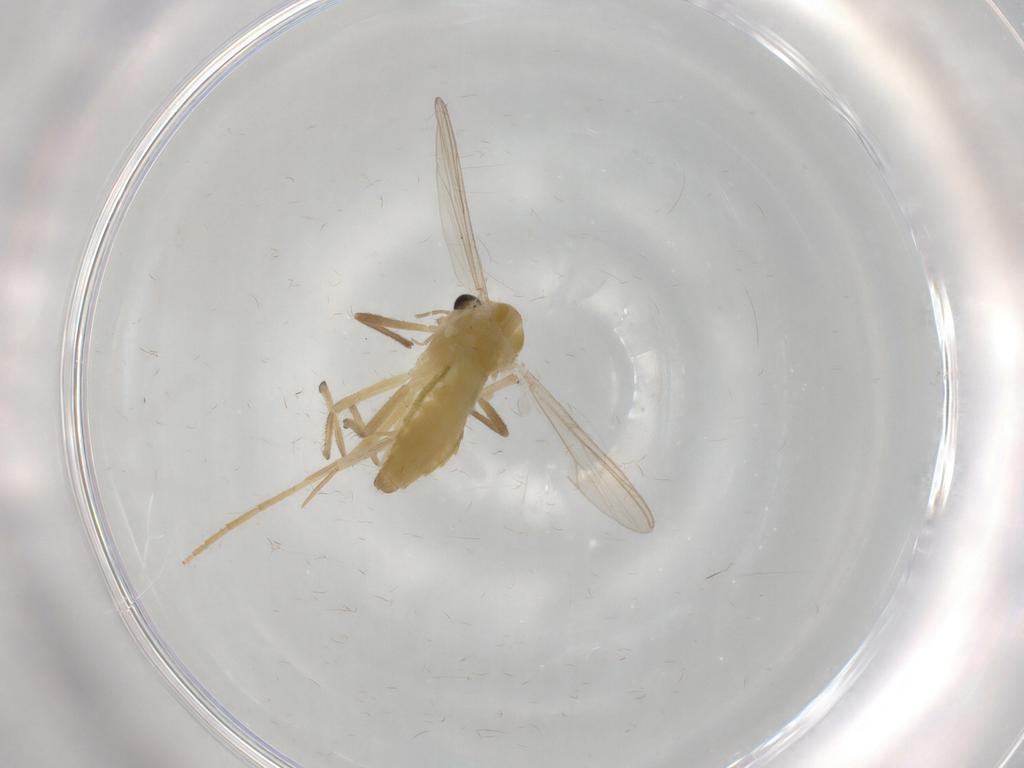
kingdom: Animalia
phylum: Arthropoda
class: Insecta
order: Diptera
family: Chironomidae
